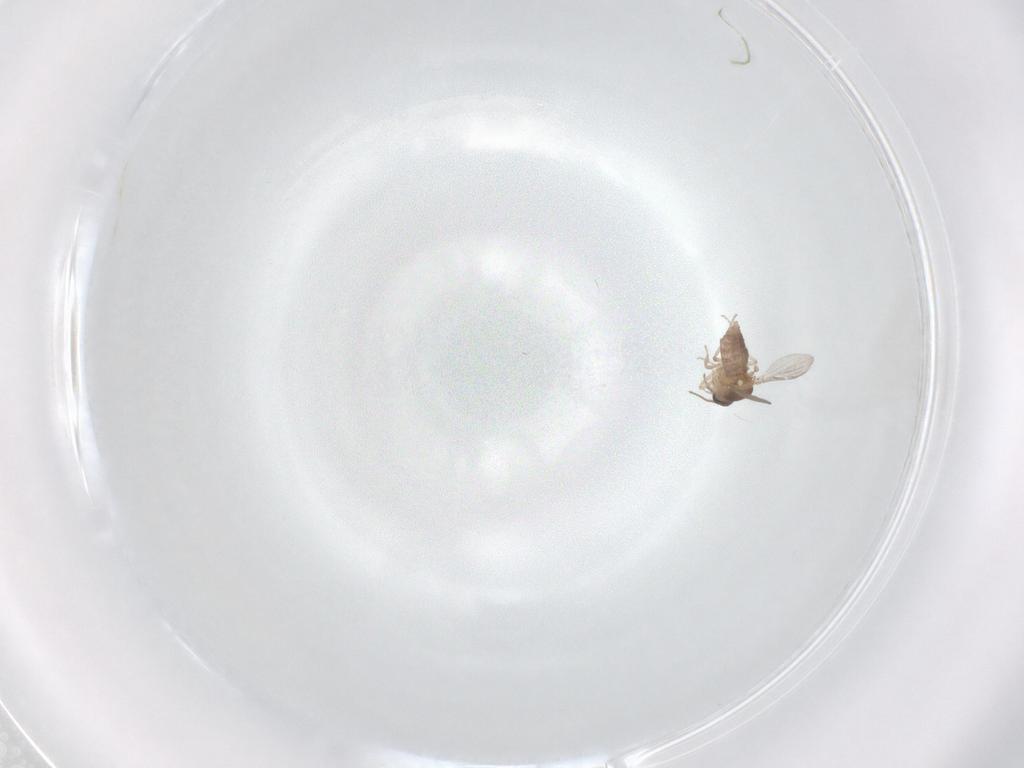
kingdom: Animalia
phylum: Arthropoda
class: Insecta
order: Diptera
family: Ceratopogonidae
